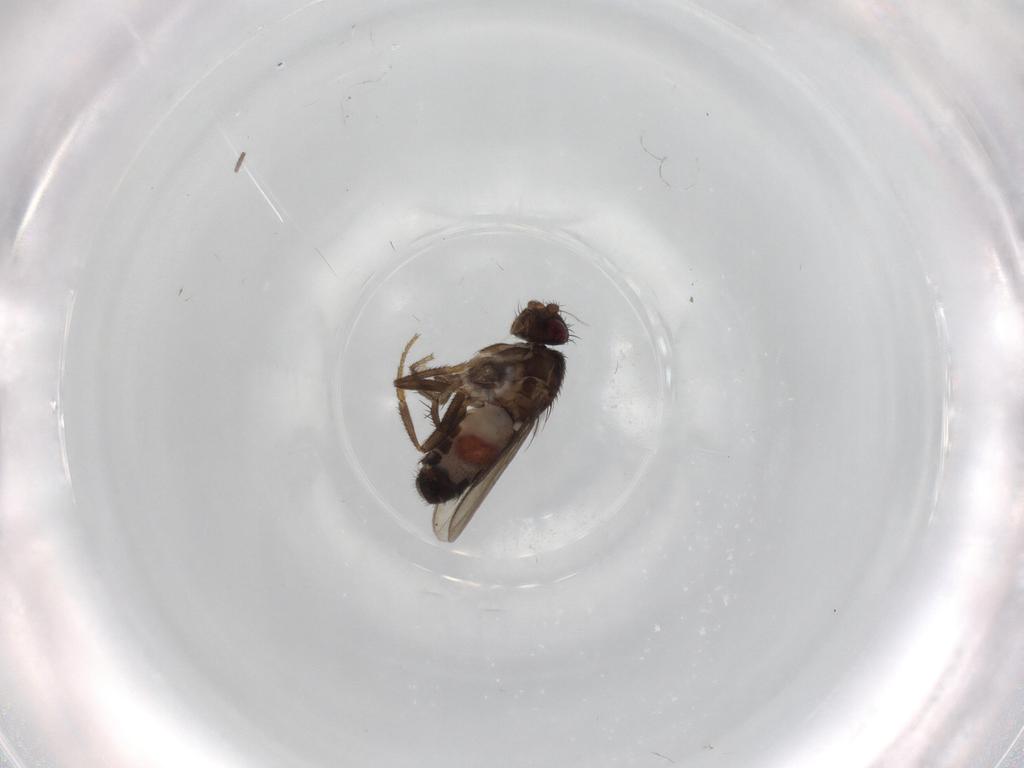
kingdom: Animalia
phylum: Arthropoda
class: Insecta
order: Diptera
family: Sphaeroceridae
